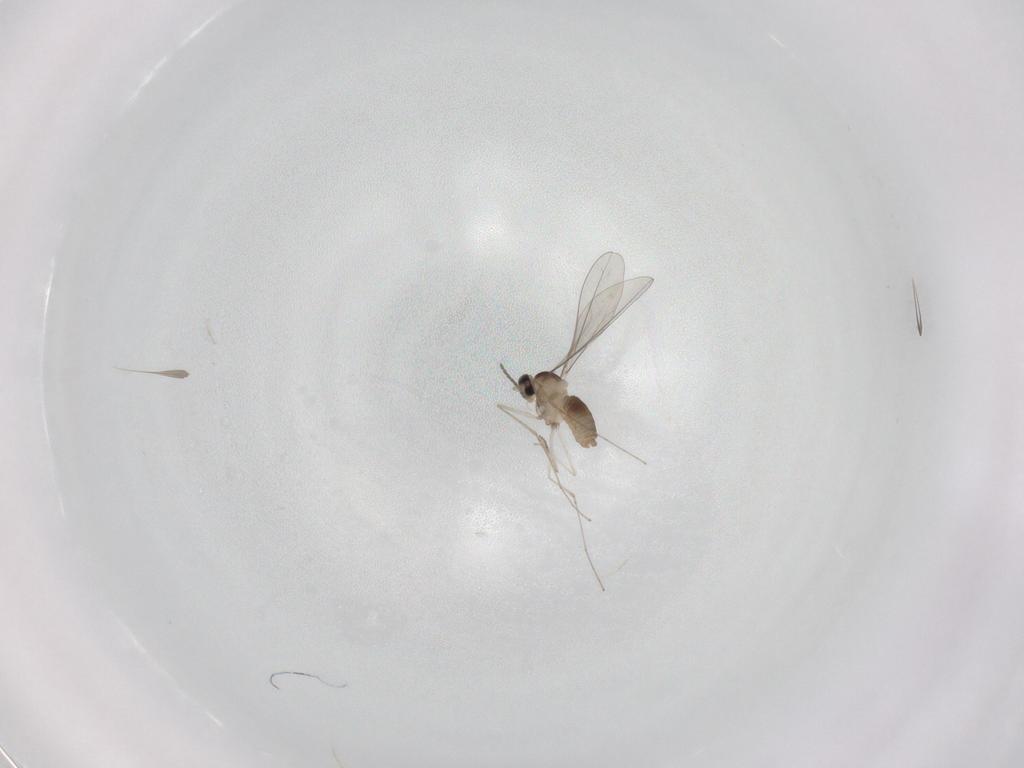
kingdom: Animalia
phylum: Arthropoda
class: Insecta
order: Diptera
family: Cecidomyiidae
